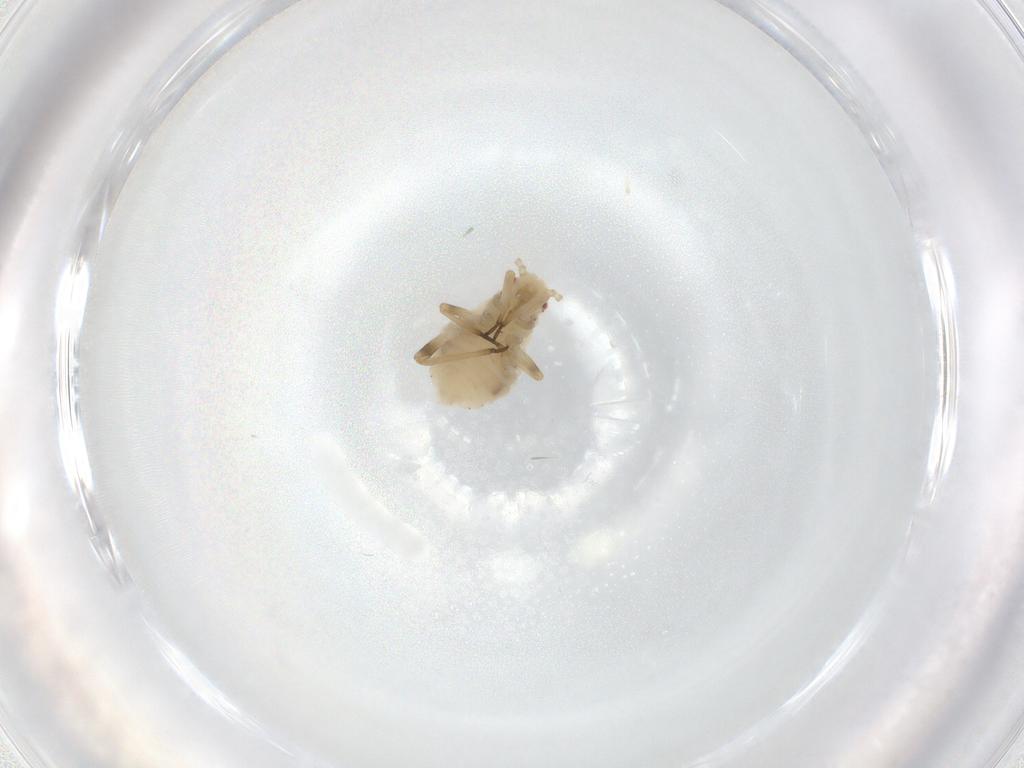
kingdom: Animalia
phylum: Arthropoda
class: Insecta
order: Hemiptera
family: Aphididae
